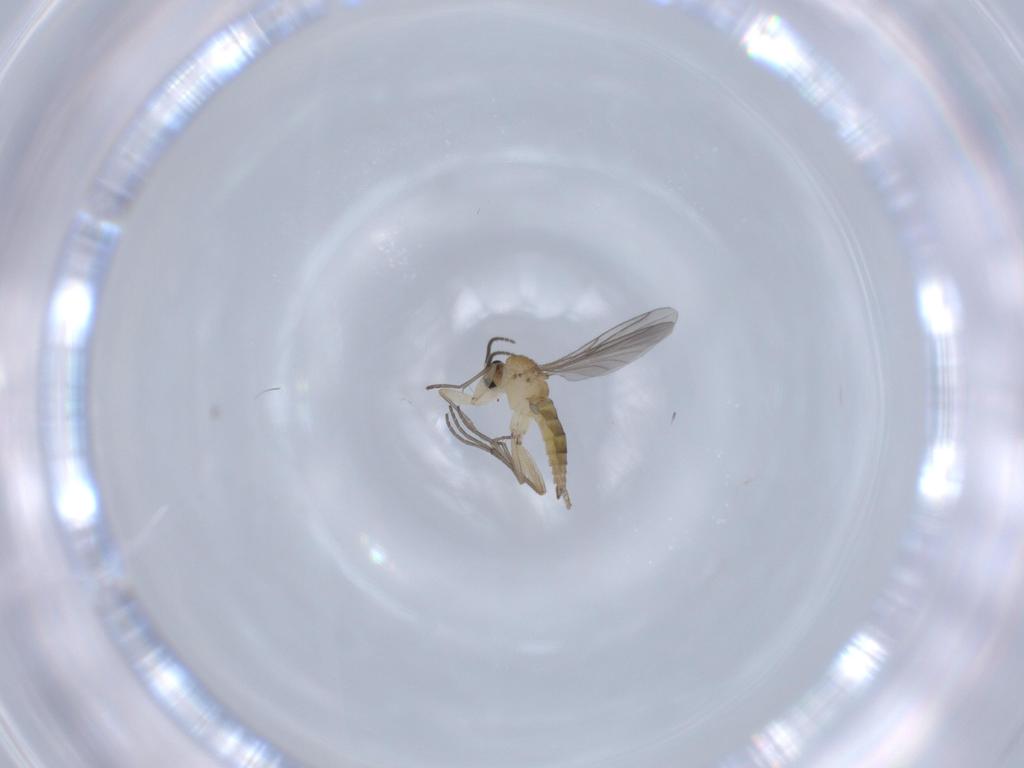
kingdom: Animalia
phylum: Arthropoda
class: Insecta
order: Diptera
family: Sciaridae
